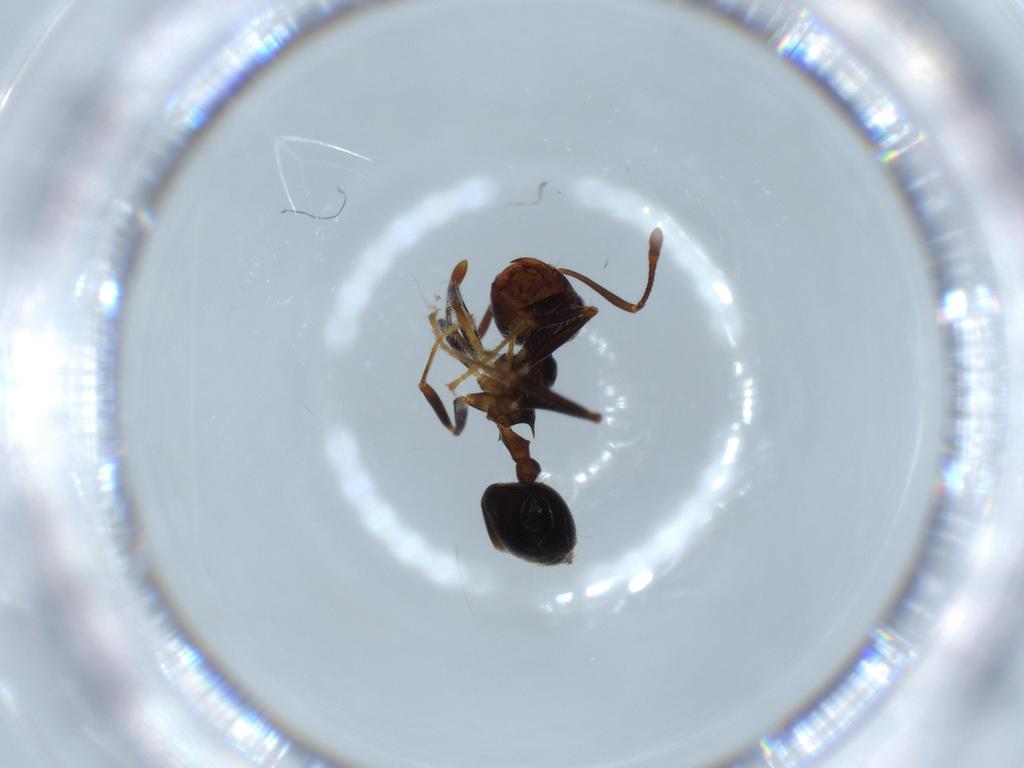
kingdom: Animalia
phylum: Arthropoda
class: Insecta
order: Hymenoptera
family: Formicidae
